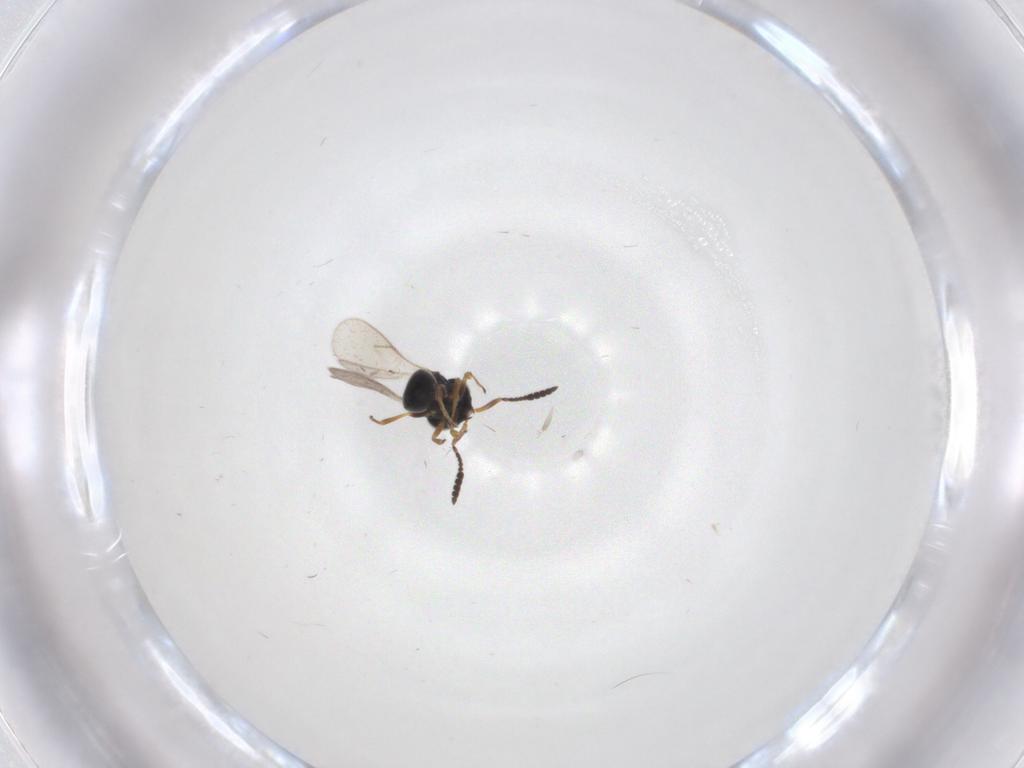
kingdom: Animalia
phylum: Arthropoda
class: Insecta
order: Hymenoptera
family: Scelionidae
